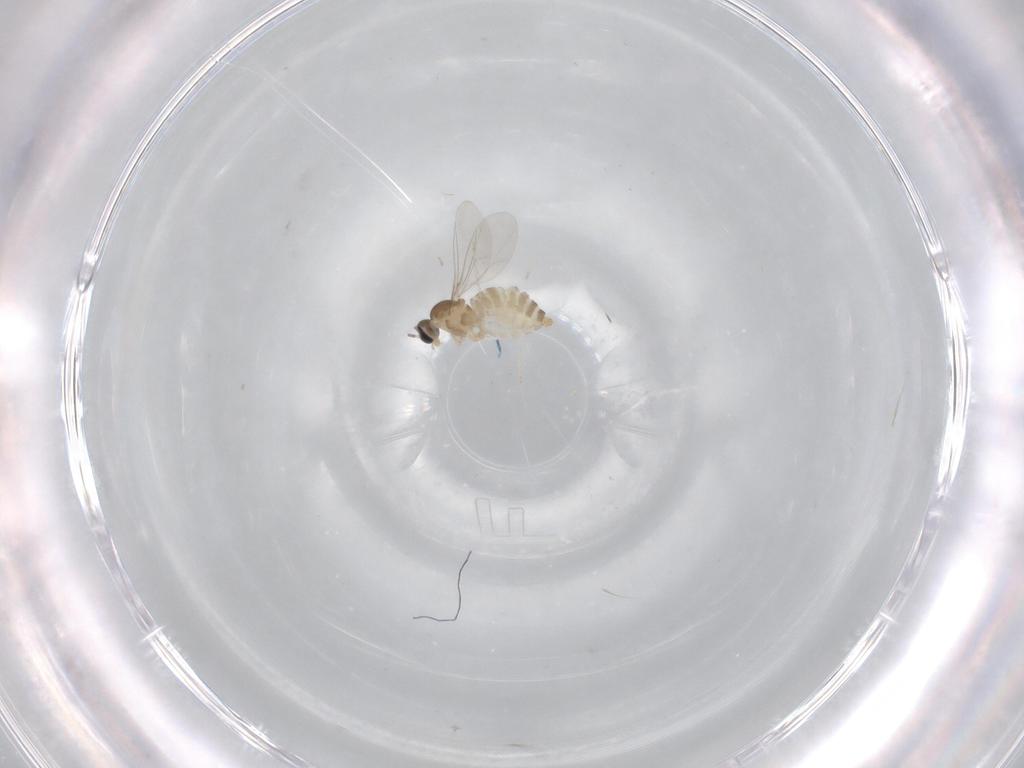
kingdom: Animalia
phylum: Arthropoda
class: Insecta
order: Diptera
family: Cecidomyiidae
